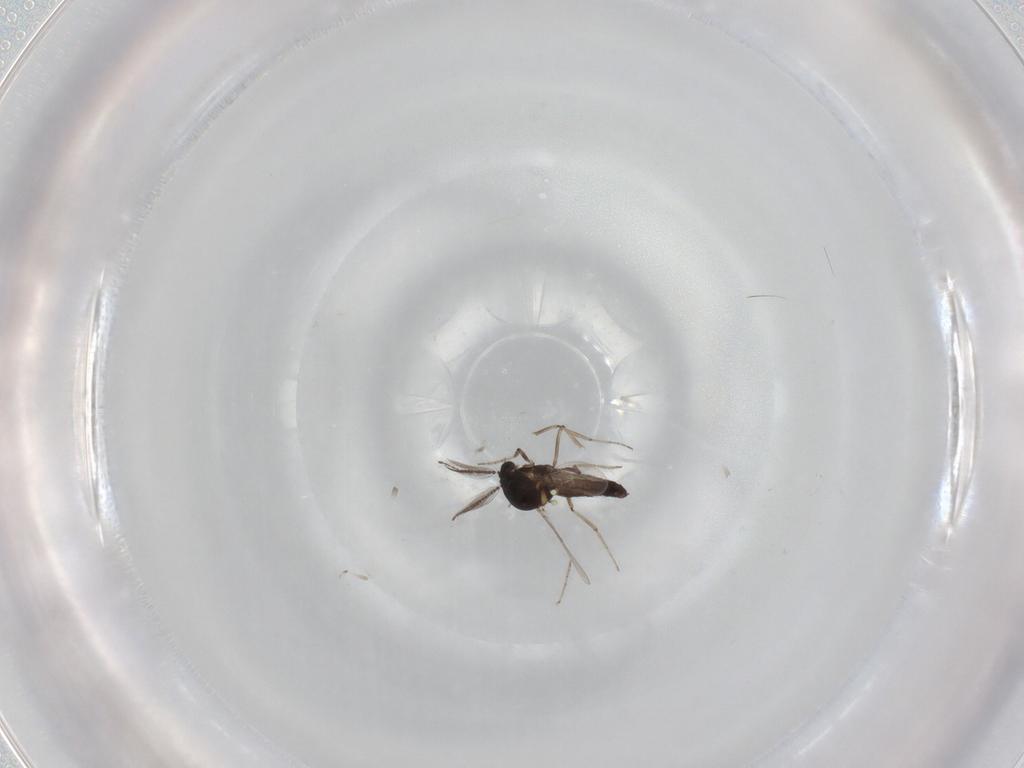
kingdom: Animalia
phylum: Arthropoda
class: Insecta
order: Diptera
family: Ceratopogonidae
